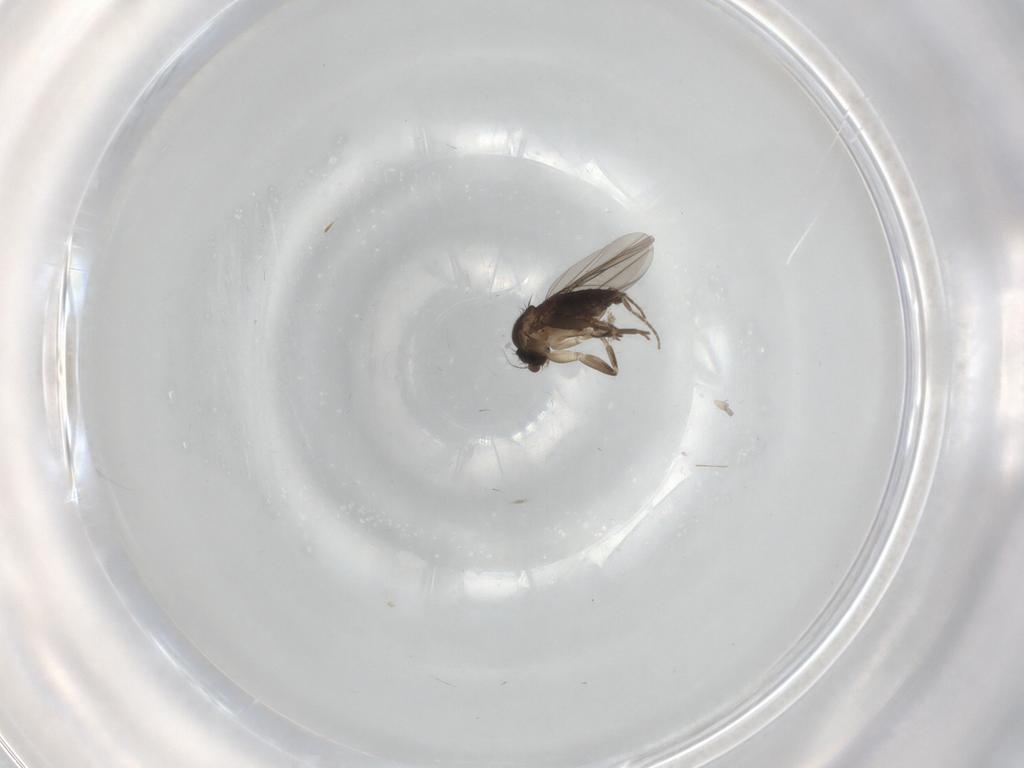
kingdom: Animalia
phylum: Arthropoda
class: Insecta
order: Diptera
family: Phoridae
